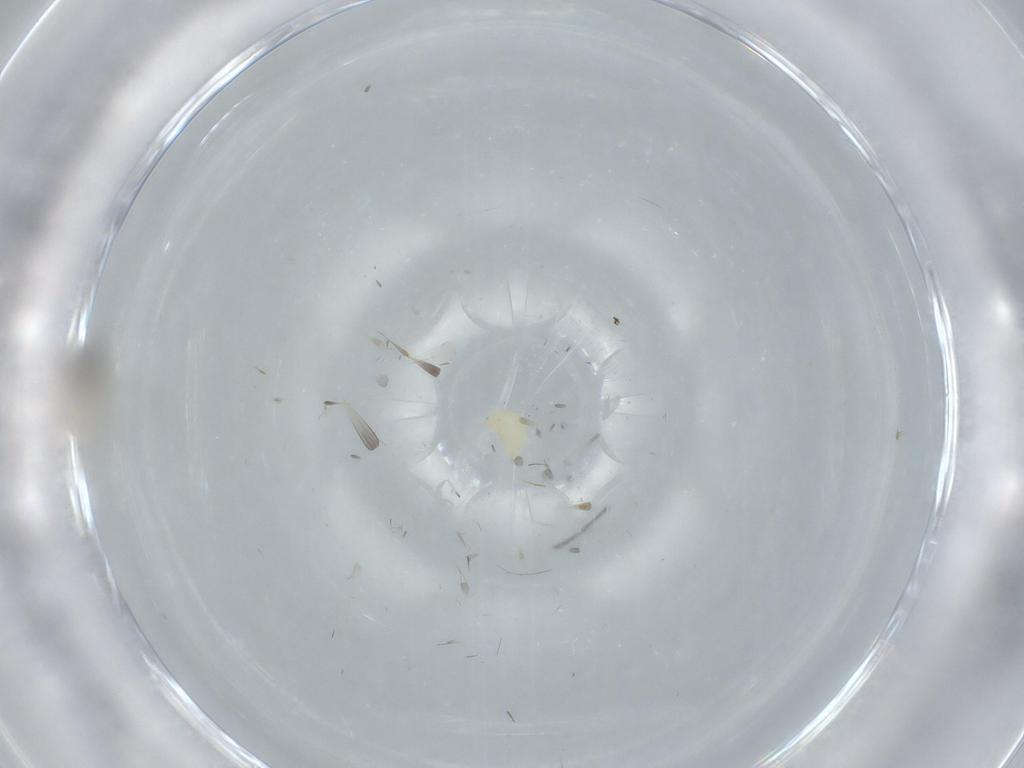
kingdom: Animalia
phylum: Arthropoda
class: Insecta
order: Diptera
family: Cecidomyiidae
